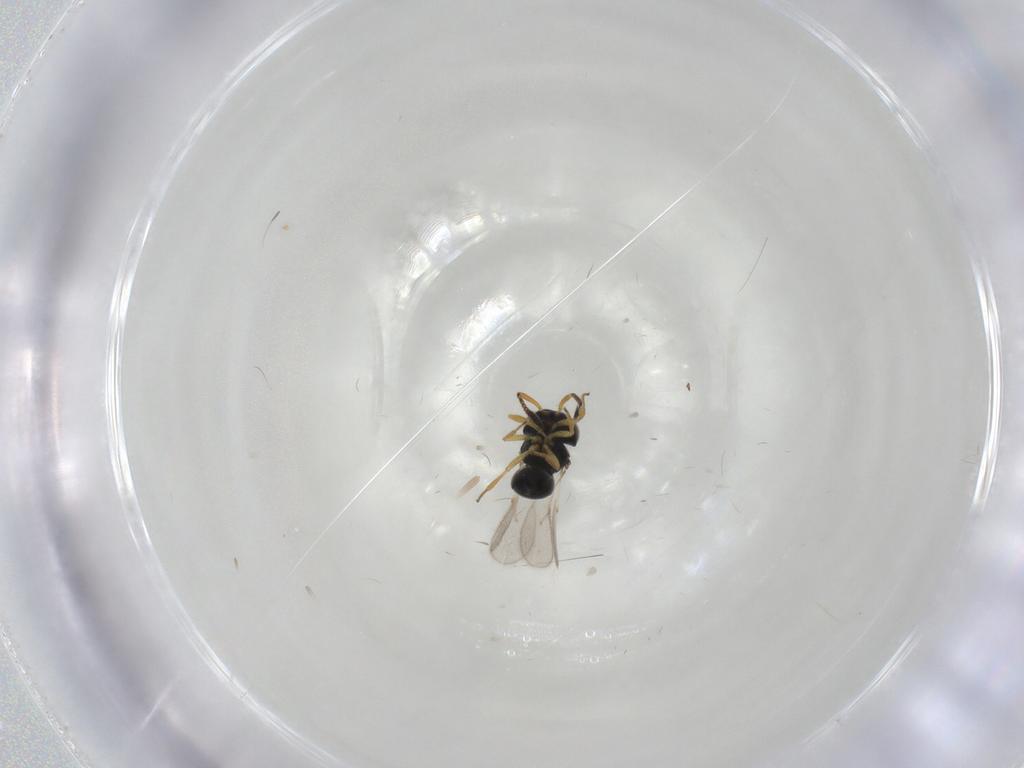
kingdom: Animalia
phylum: Arthropoda
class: Insecta
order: Hymenoptera
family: Scelionidae
